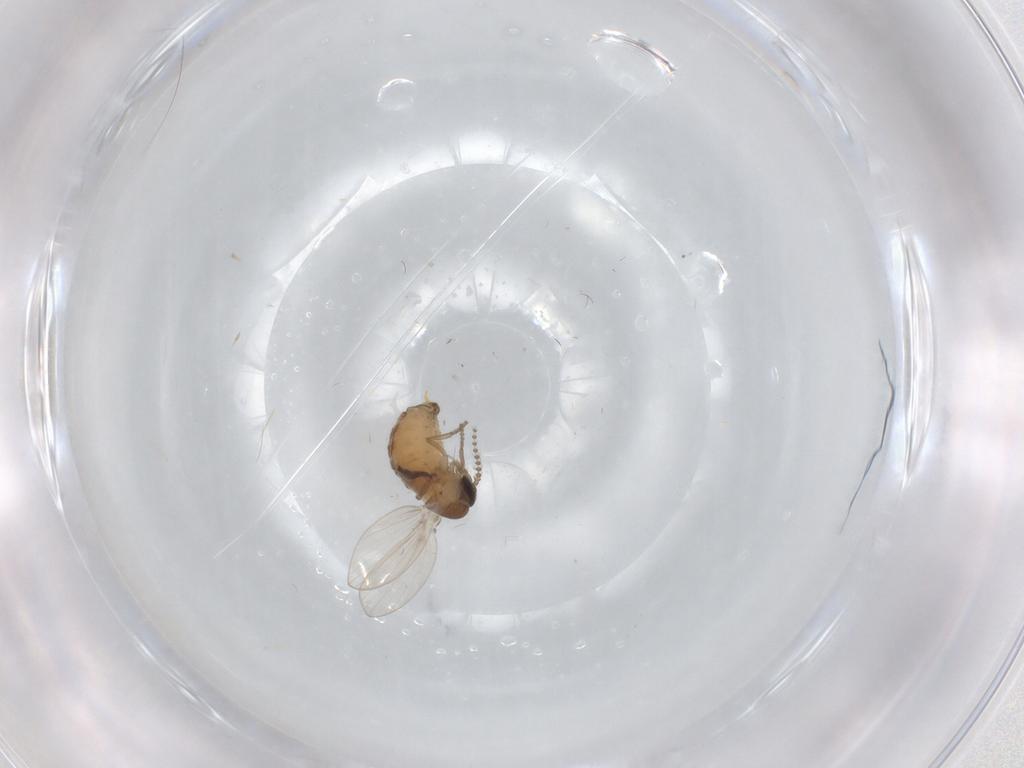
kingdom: Animalia
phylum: Arthropoda
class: Insecta
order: Diptera
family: Psychodidae
